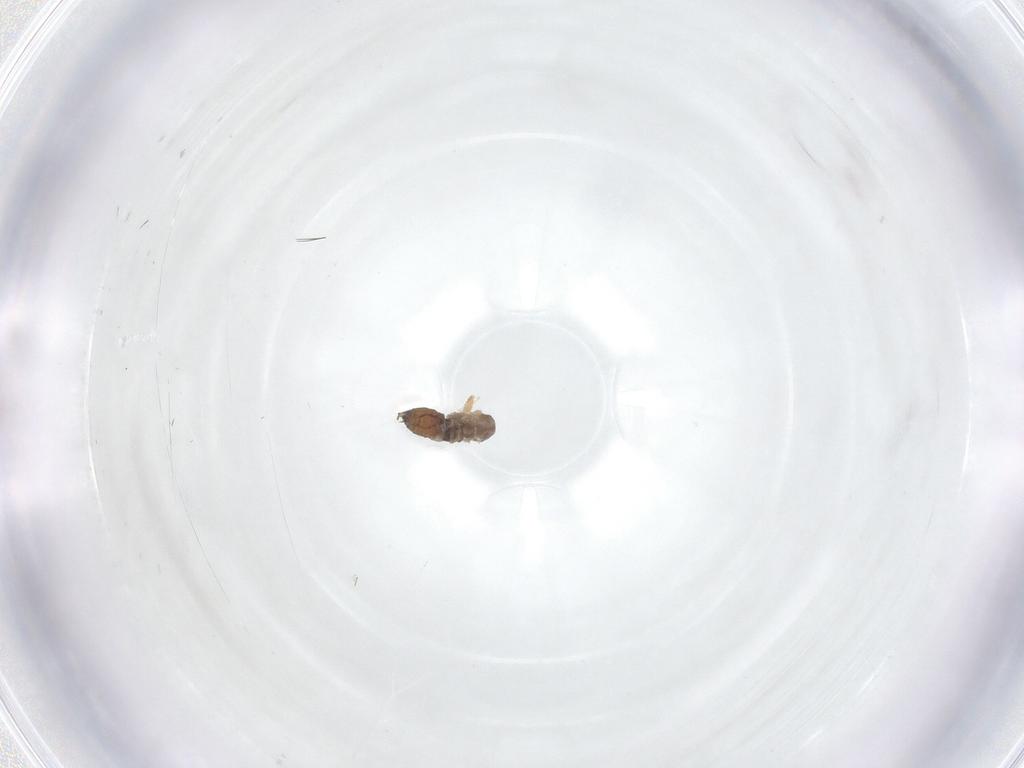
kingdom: Animalia
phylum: Arthropoda
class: Insecta
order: Diptera
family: Psychodidae
